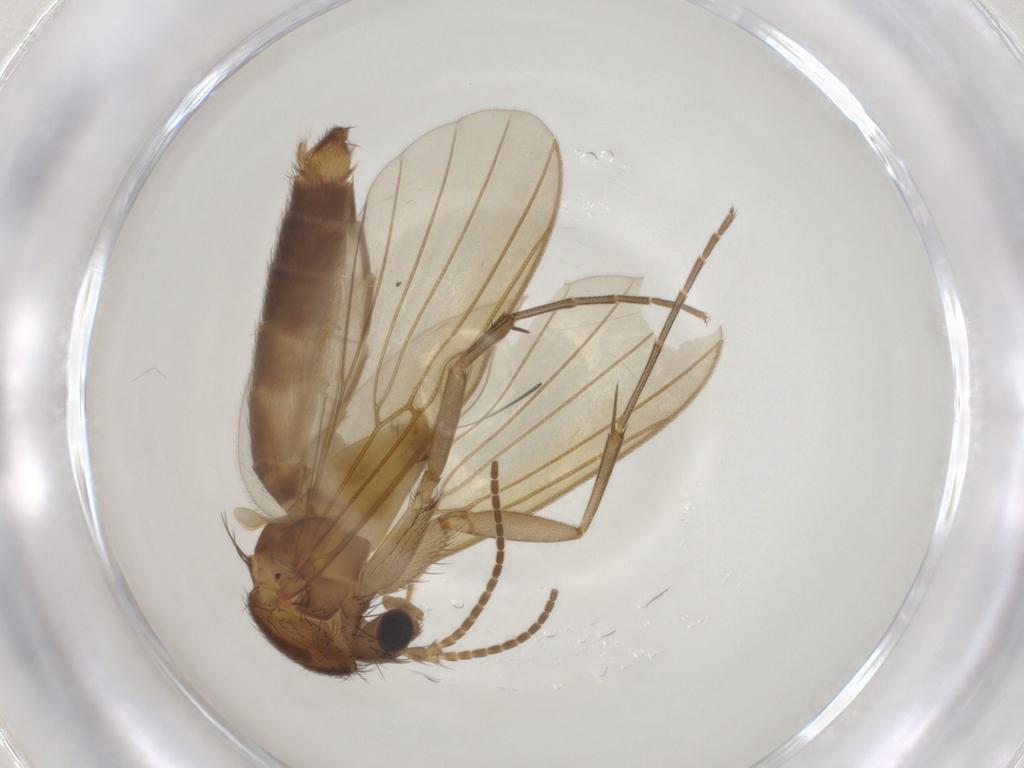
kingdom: Animalia
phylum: Arthropoda
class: Insecta
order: Diptera
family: Mycetophilidae
